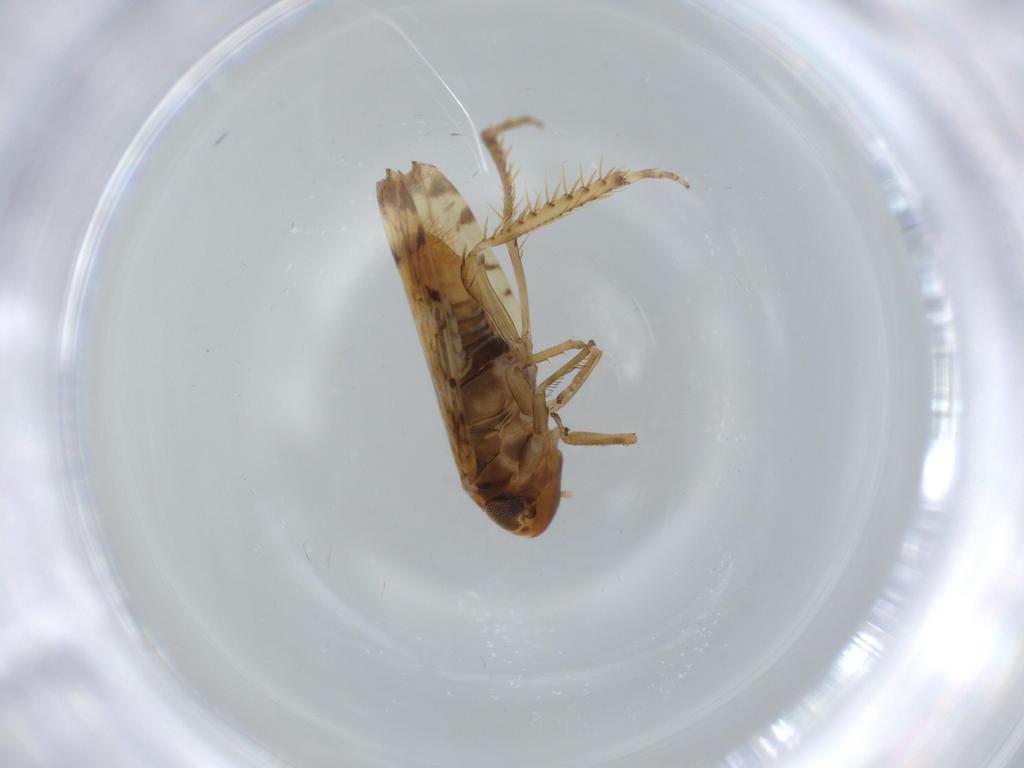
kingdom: Animalia
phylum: Arthropoda
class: Insecta
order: Hemiptera
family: Cicadellidae
